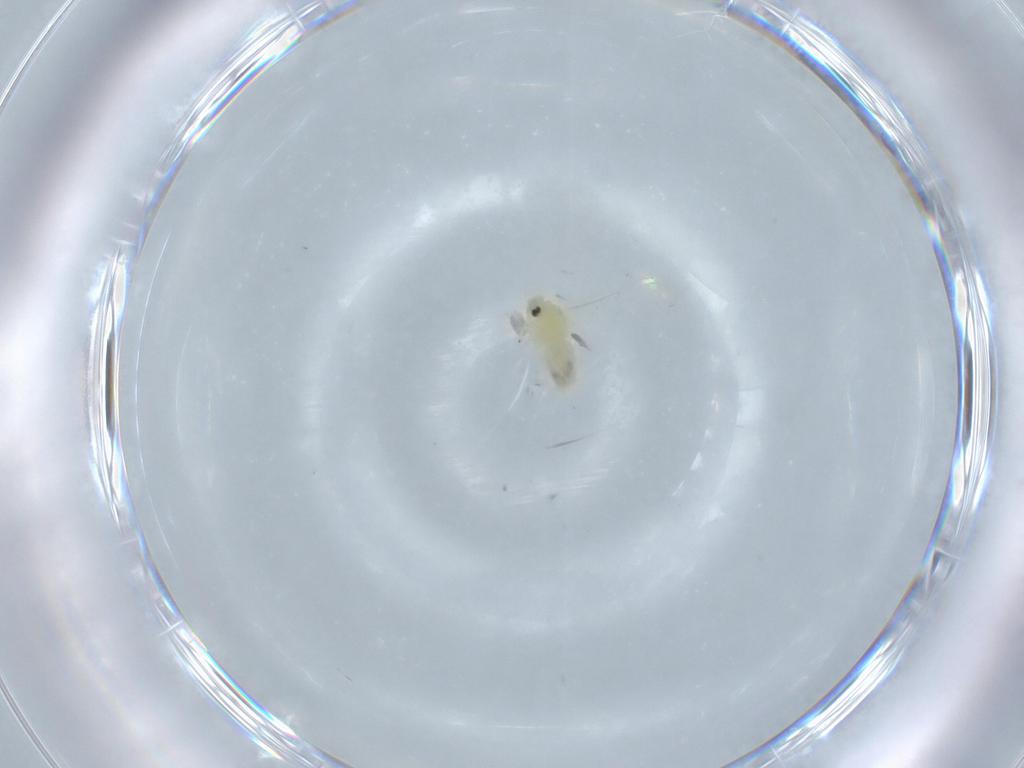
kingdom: Animalia
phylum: Arthropoda
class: Insecta
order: Hemiptera
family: Aleyrodidae
